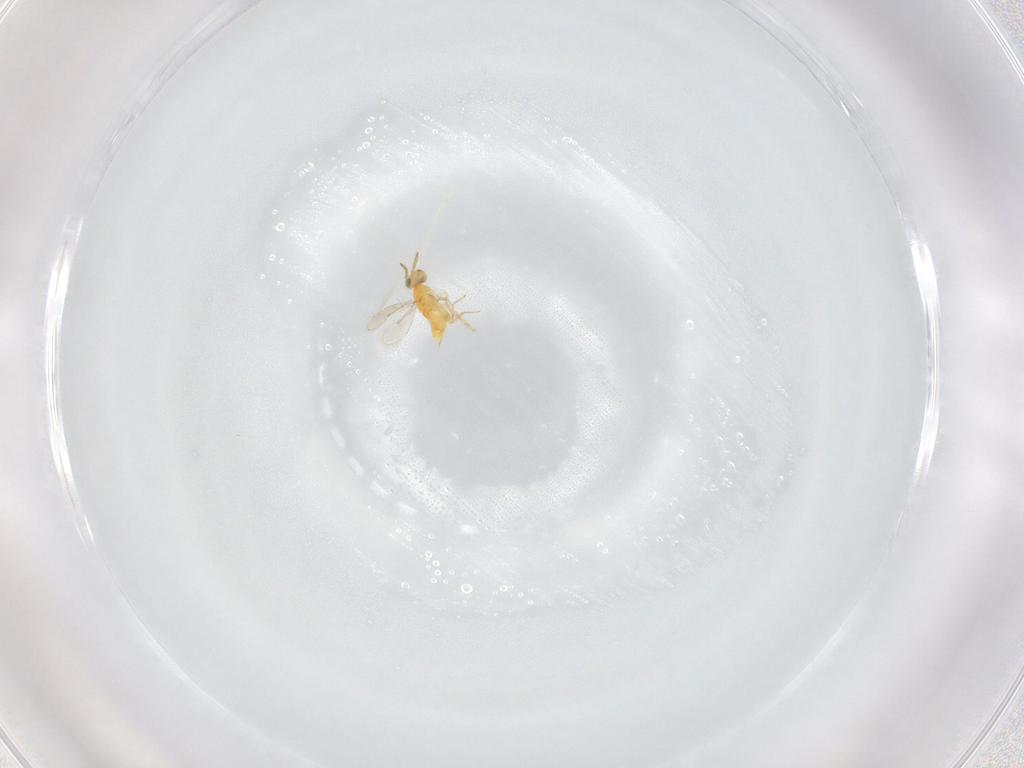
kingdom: Animalia
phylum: Arthropoda
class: Insecta
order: Hymenoptera
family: Aphelinidae
